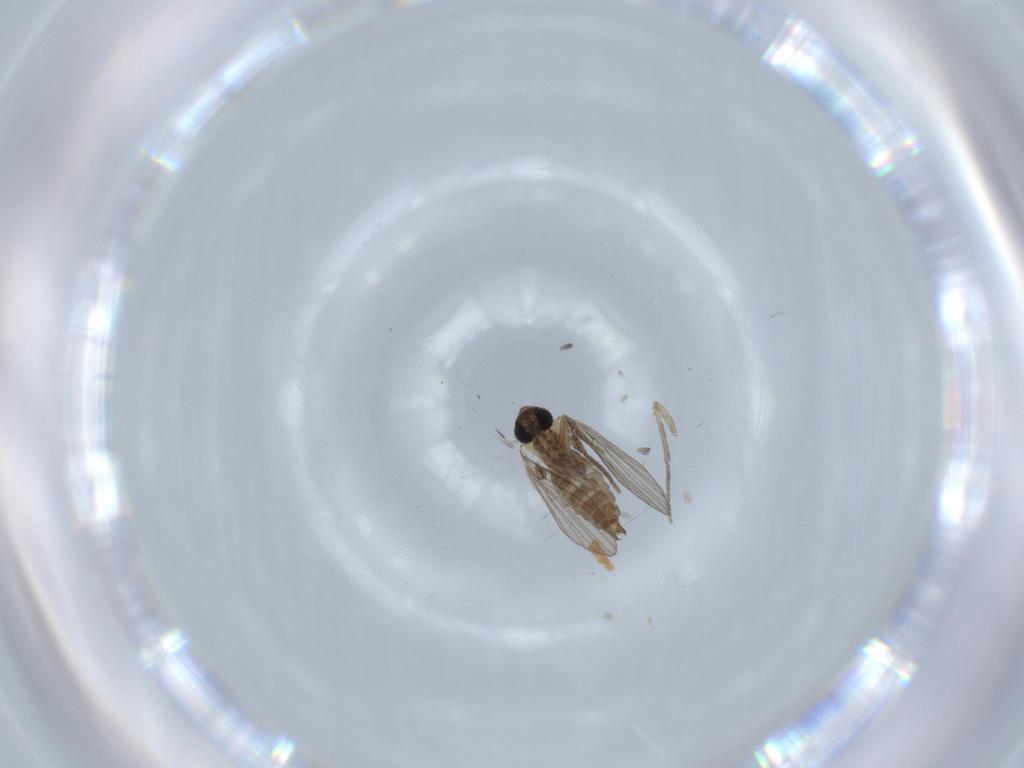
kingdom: Animalia
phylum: Arthropoda
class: Insecta
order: Diptera
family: Psychodidae
